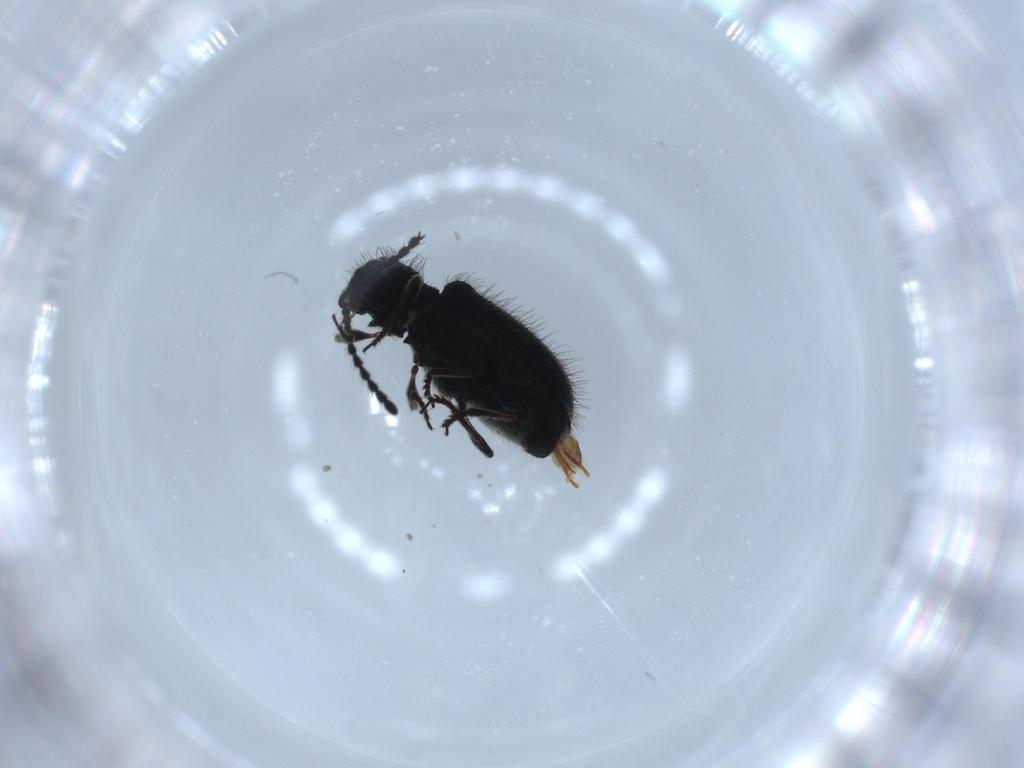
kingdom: Animalia
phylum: Arthropoda
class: Insecta
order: Coleoptera
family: Ptinidae
